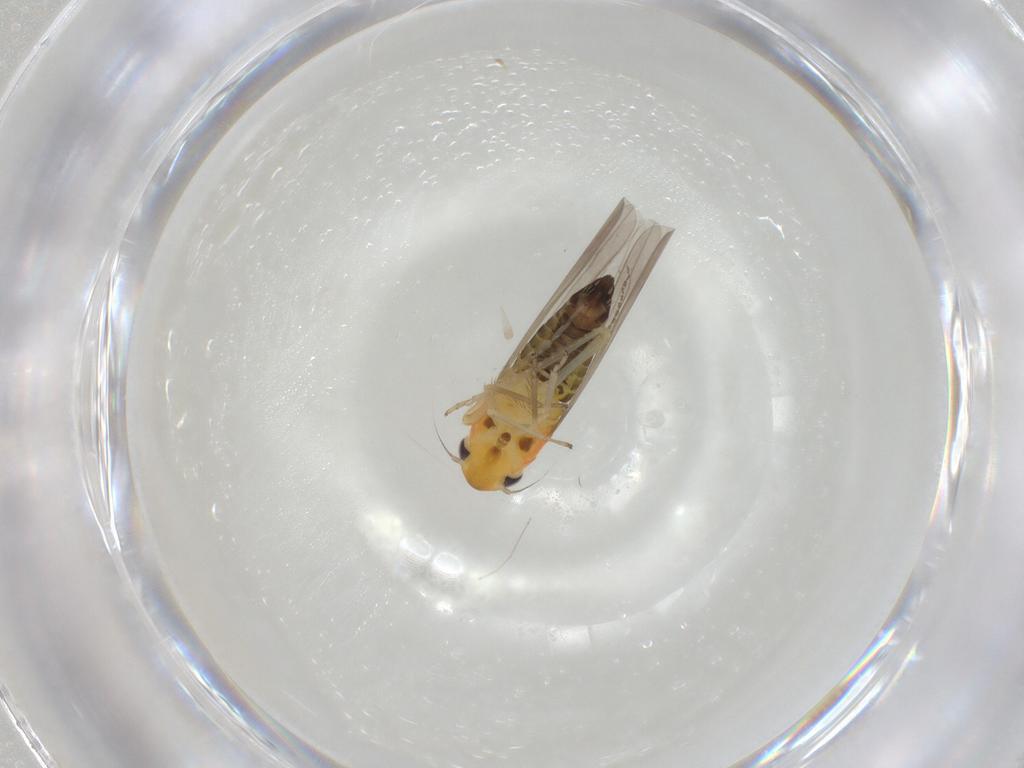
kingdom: Animalia
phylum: Arthropoda
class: Insecta
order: Hemiptera
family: Cicadellidae
